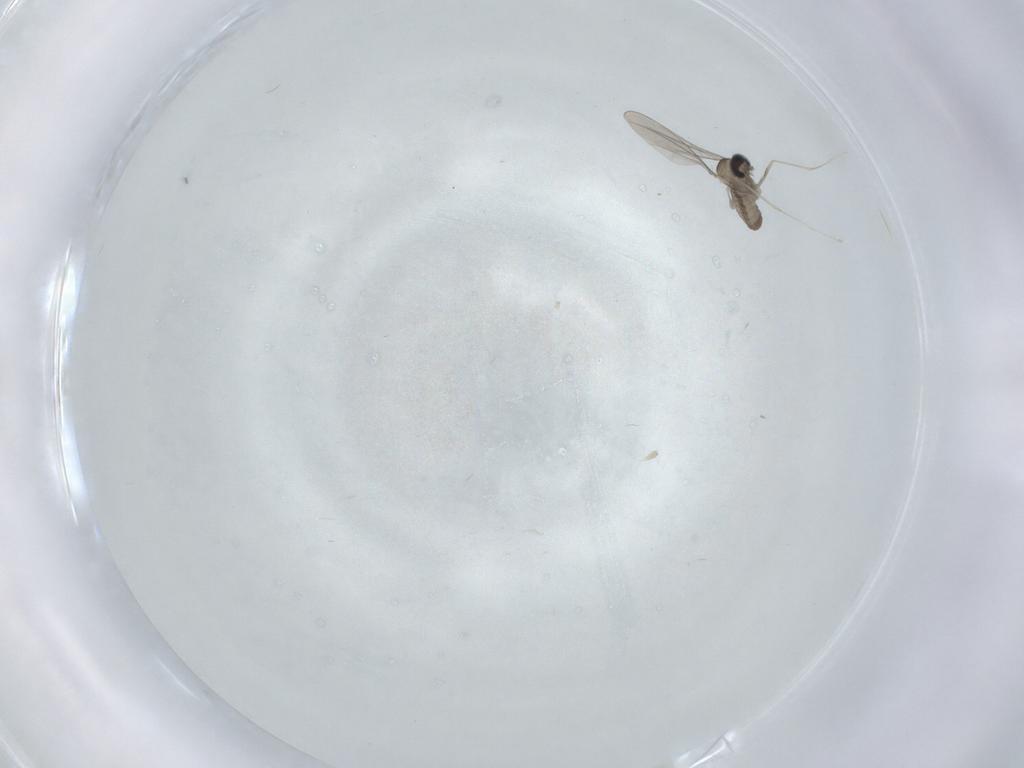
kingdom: Animalia
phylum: Arthropoda
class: Insecta
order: Diptera
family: Cecidomyiidae
